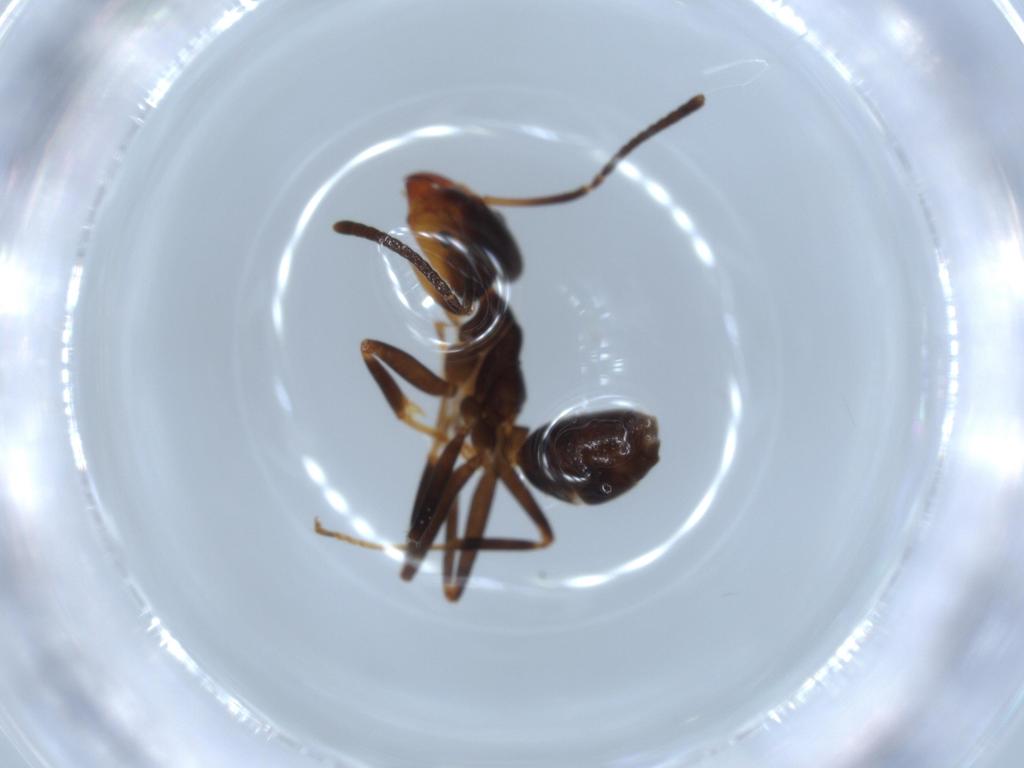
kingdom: Animalia
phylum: Arthropoda
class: Insecta
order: Hymenoptera
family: Formicidae
